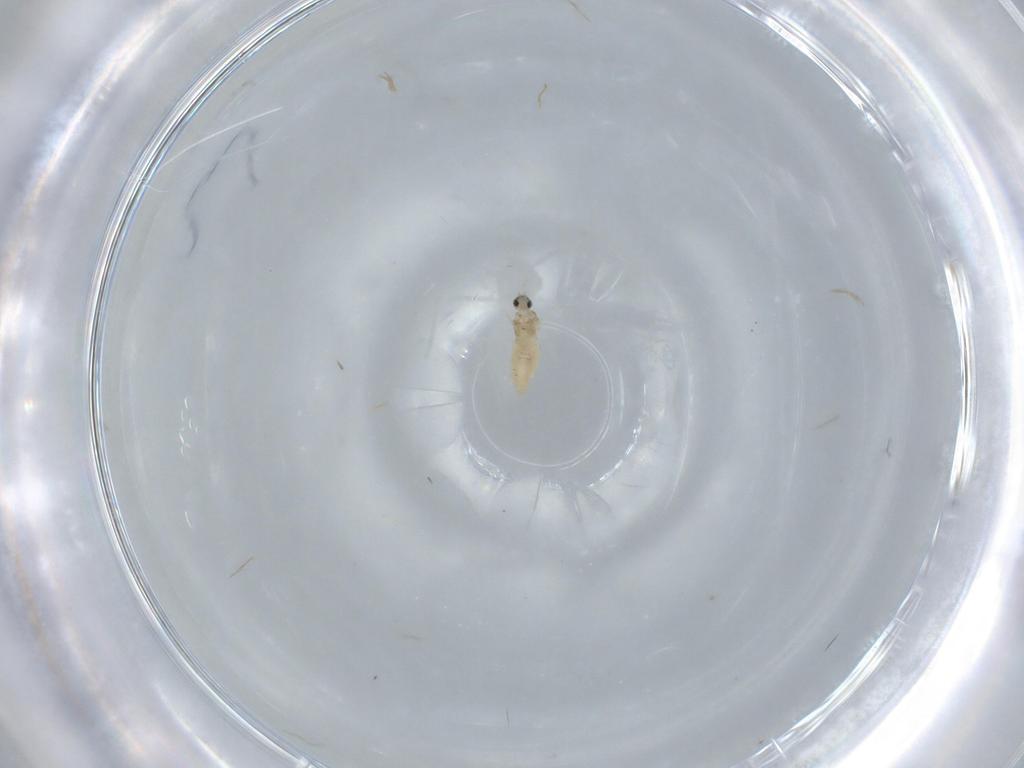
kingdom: Animalia
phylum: Arthropoda
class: Insecta
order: Diptera
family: Cecidomyiidae
